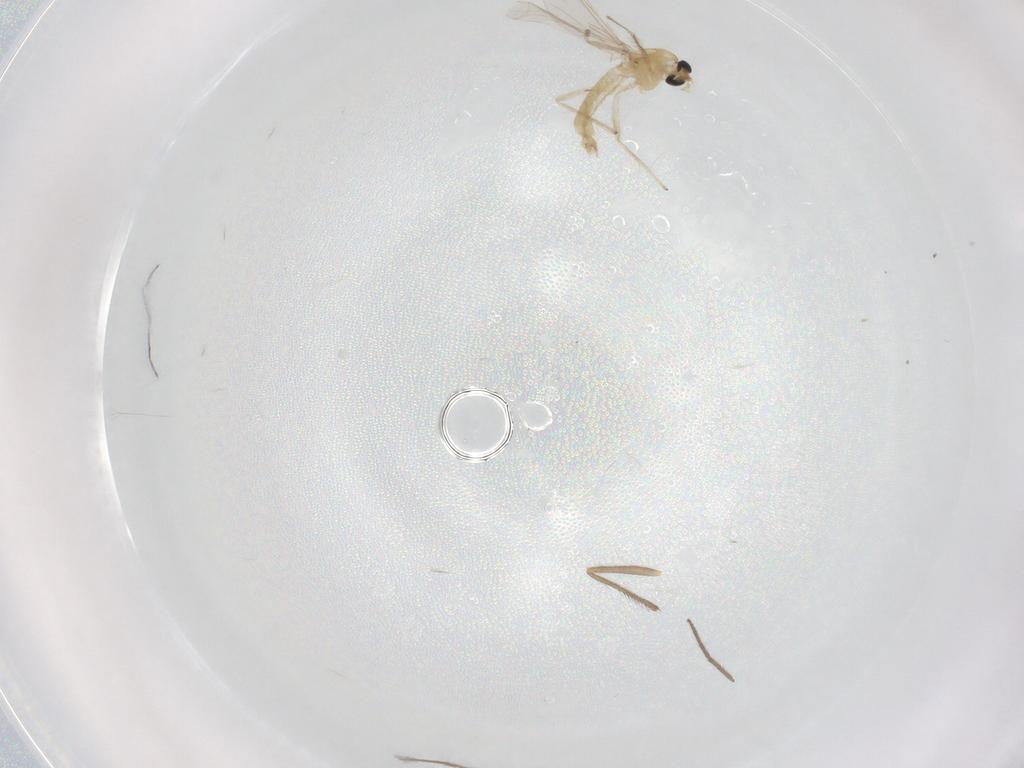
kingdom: Animalia
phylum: Arthropoda
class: Insecta
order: Diptera
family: Chironomidae
